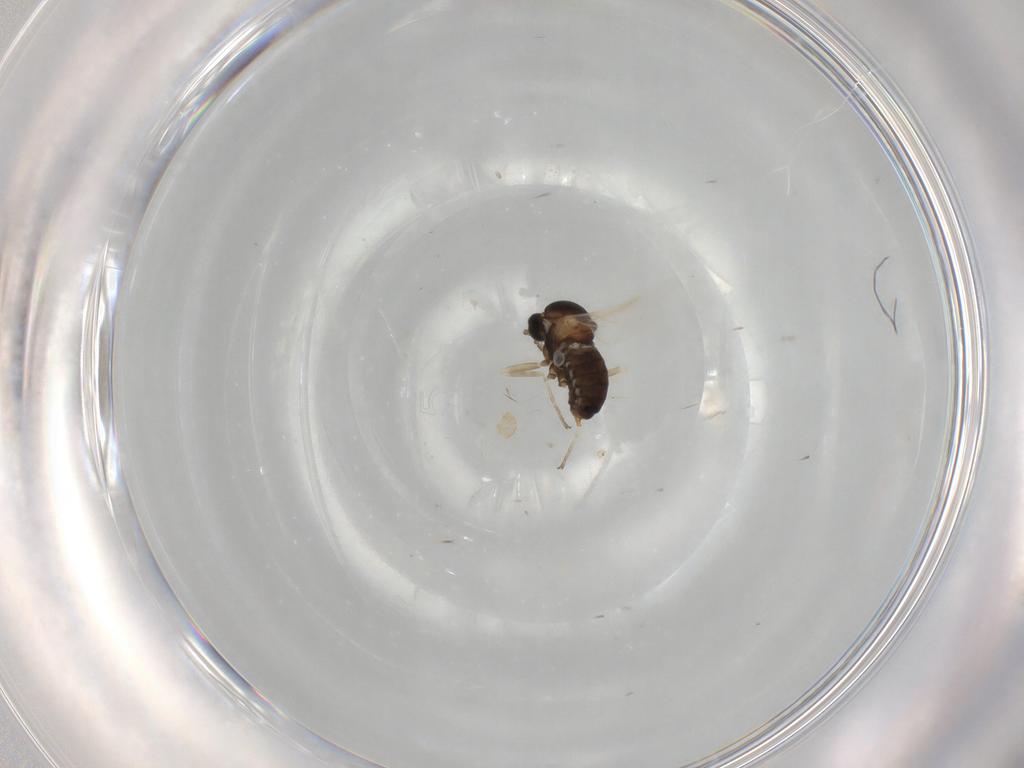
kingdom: Animalia
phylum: Arthropoda
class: Insecta
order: Diptera
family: Cecidomyiidae
